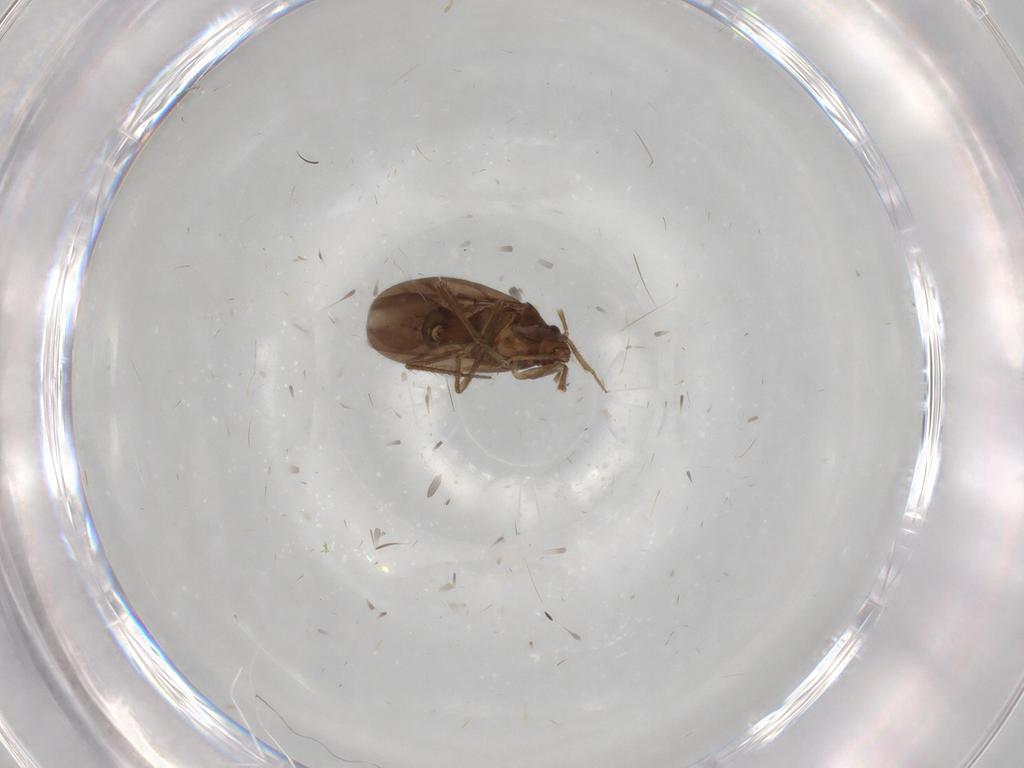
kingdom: Animalia
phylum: Arthropoda
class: Insecta
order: Hemiptera
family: Ceratocombidae
